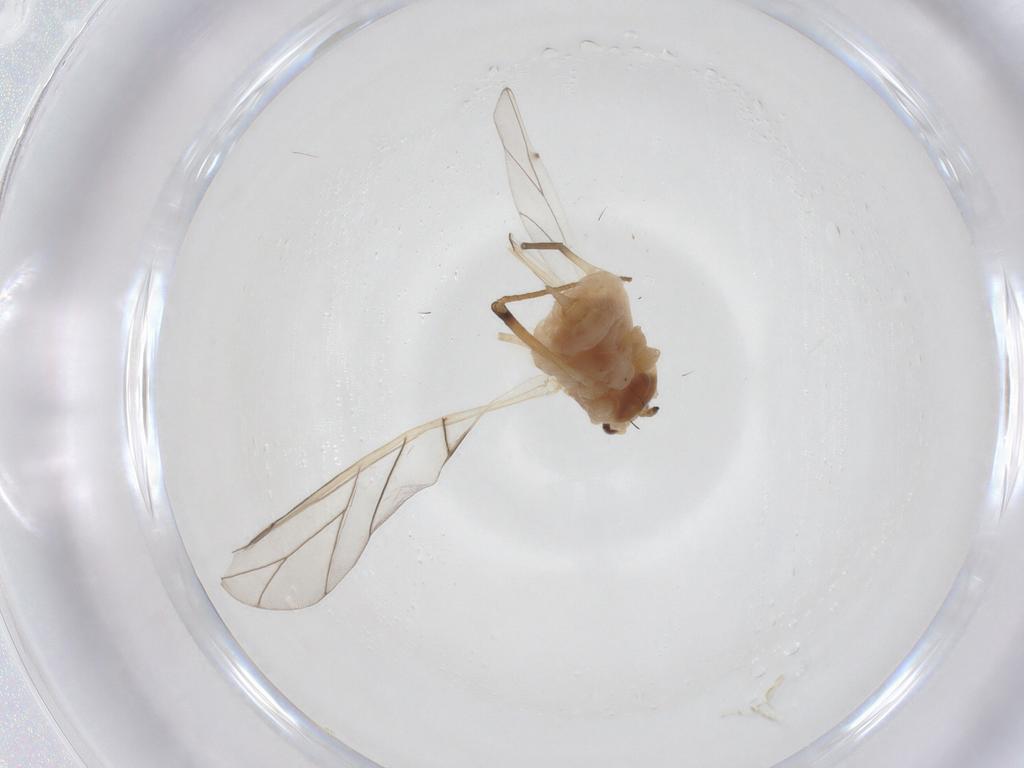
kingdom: Animalia
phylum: Arthropoda
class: Insecta
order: Hemiptera
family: Aphididae
